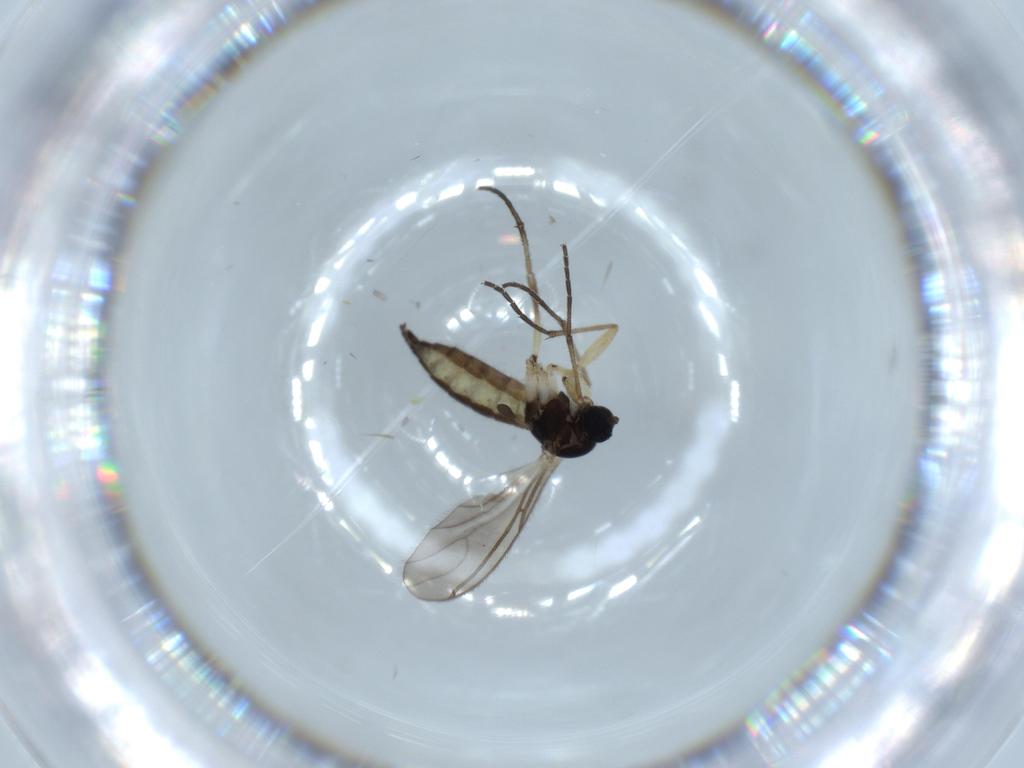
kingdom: Animalia
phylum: Arthropoda
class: Insecta
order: Diptera
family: Sciaridae
